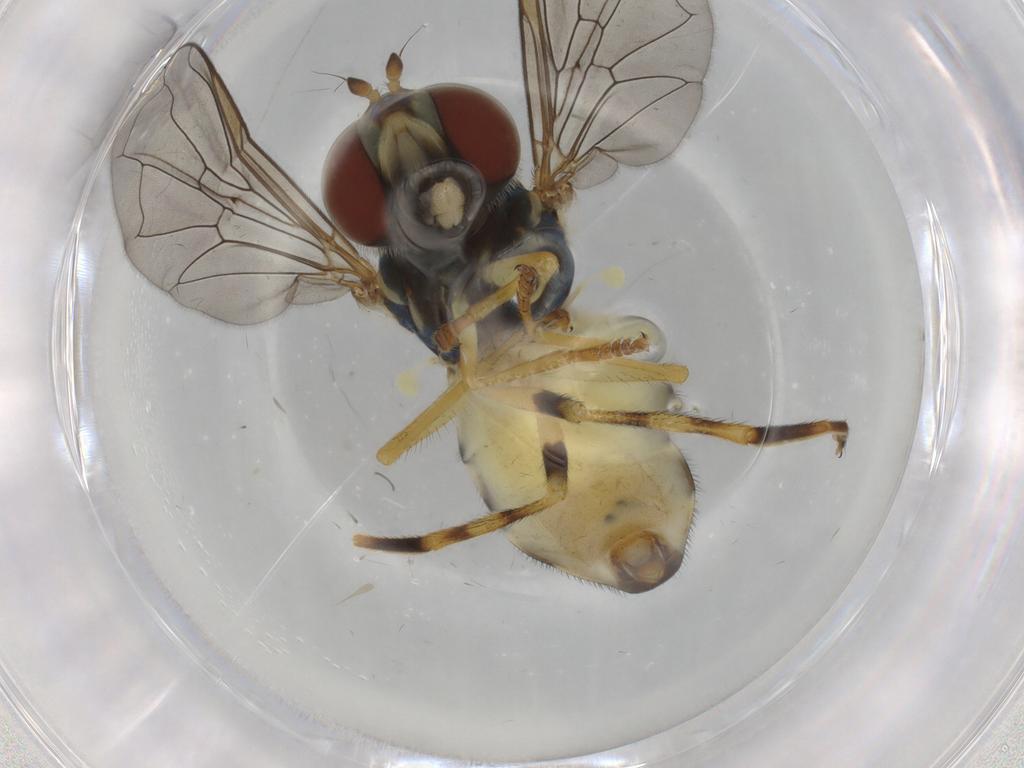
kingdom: Animalia
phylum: Arthropoda
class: Insecta
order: Diptera
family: Syrphidae
